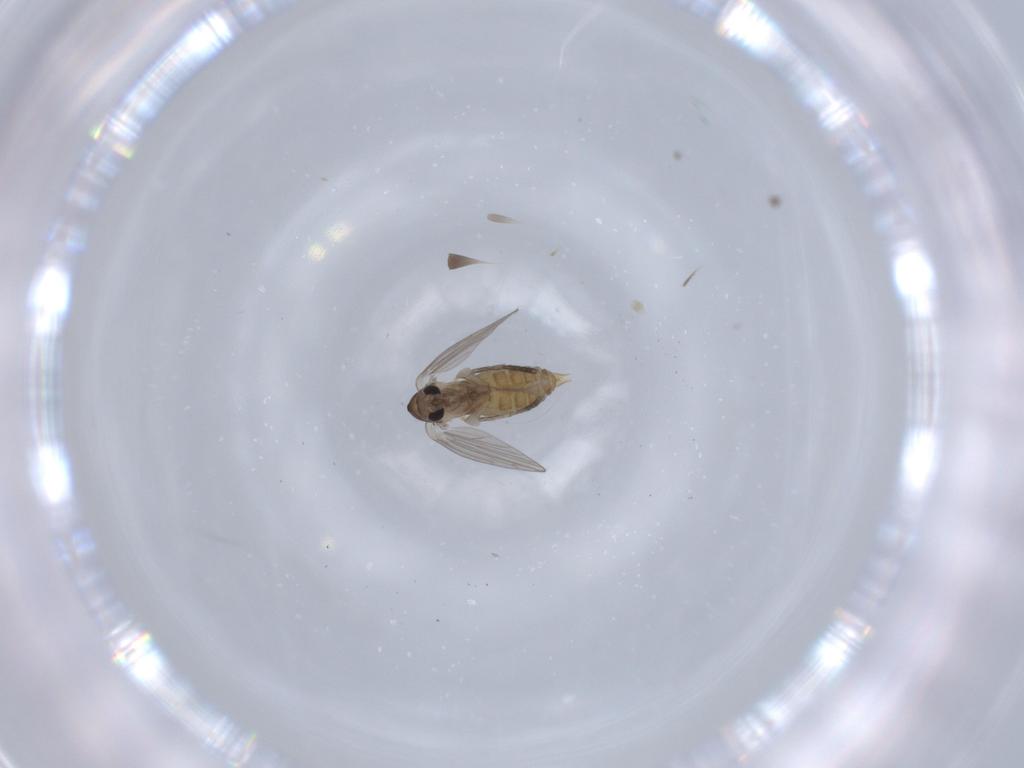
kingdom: Animalia
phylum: Arthropoda
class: Insecta
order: Diptera
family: Psychodidae
